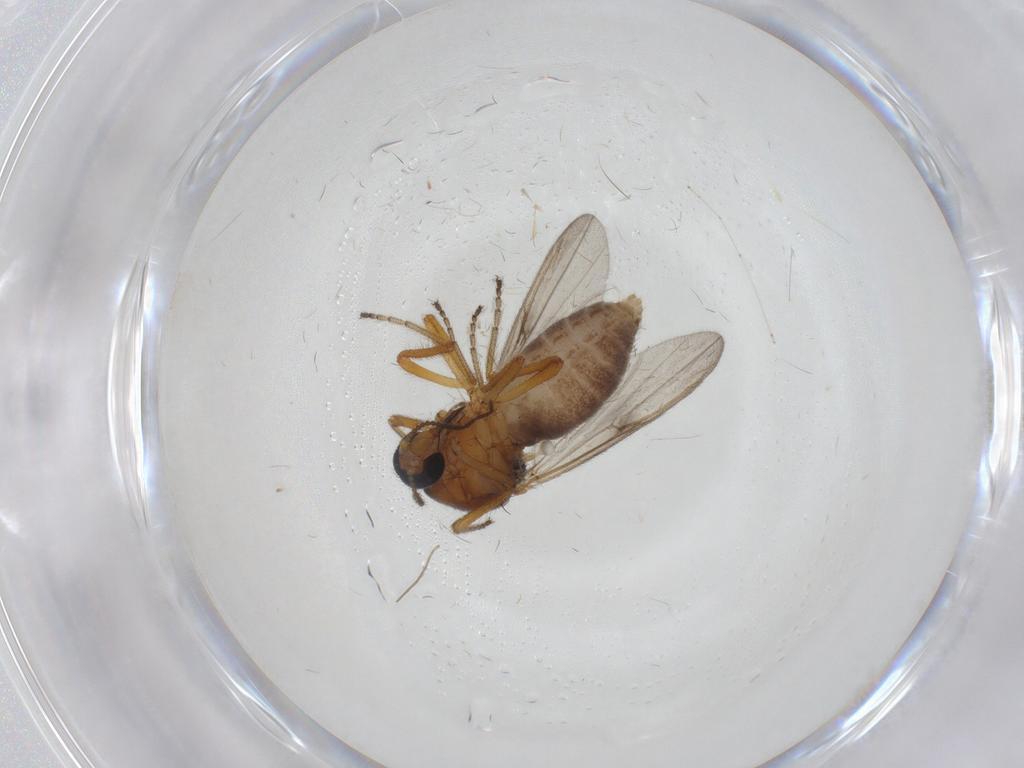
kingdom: Animalia
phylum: Arthropoda
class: Insecta
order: Diptera
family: Ceratopogonidae
